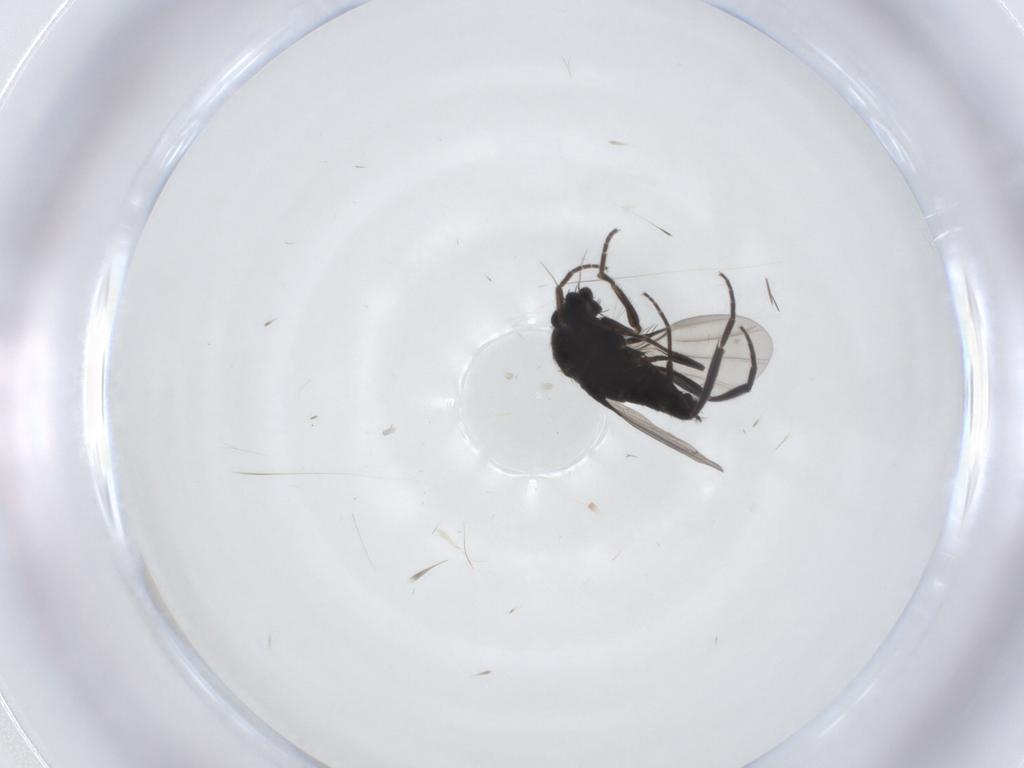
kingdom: Animalia
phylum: Arthropoda
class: Insecta
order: Diptera
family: Phoridae
